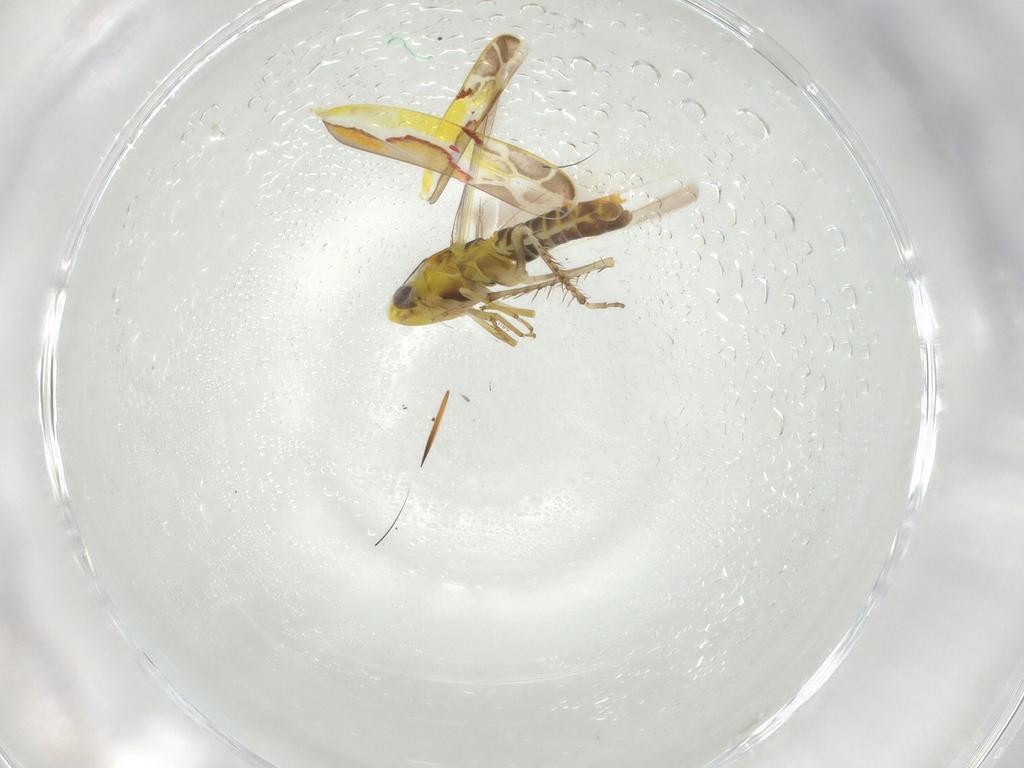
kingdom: Animalia
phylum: Arthropoda
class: Insecta
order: Hemiptera
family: Cicadellidae
